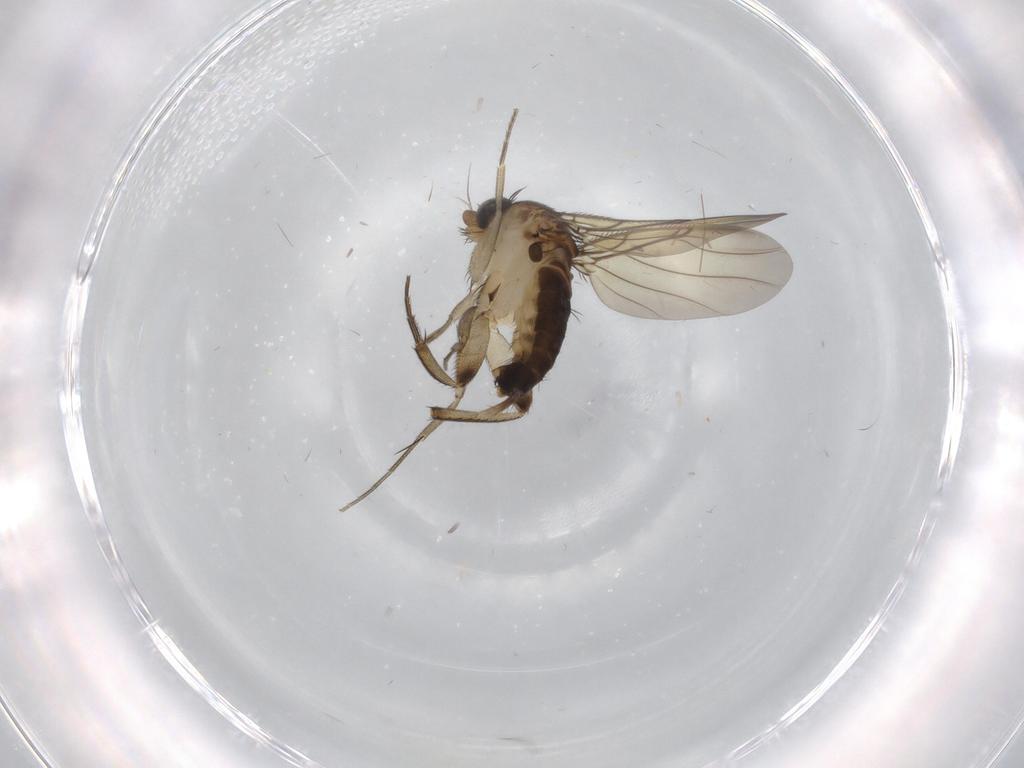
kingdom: Animalia
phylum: Arthropoda
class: Insecta
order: Diptera
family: Phoridae
